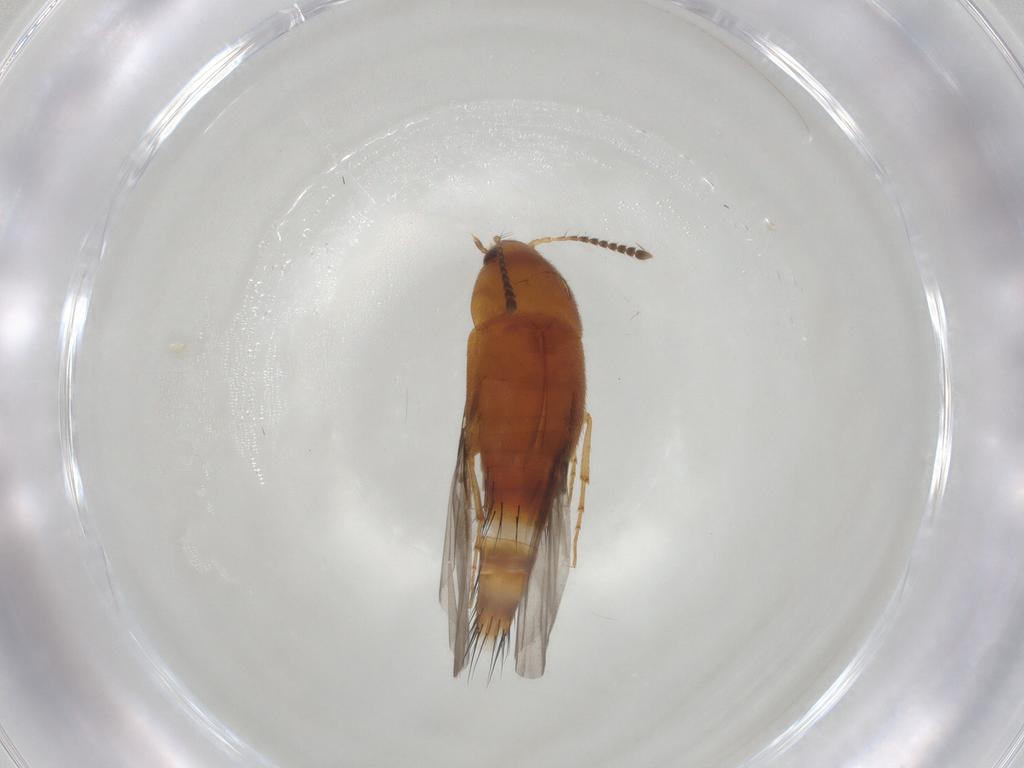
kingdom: Animalia
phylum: Arthropoda
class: Insecta
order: Coleoptera
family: Staphylinidae
